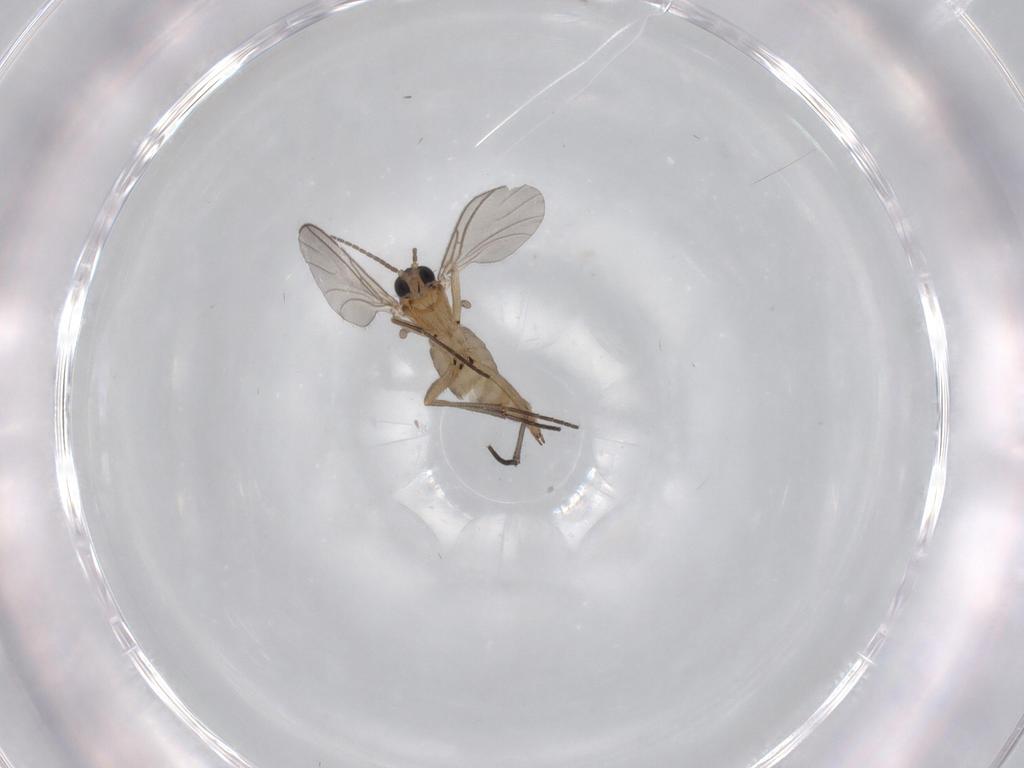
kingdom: Animalia
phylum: Arthropoda
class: Insecta
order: Diptera
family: Sciaridae
